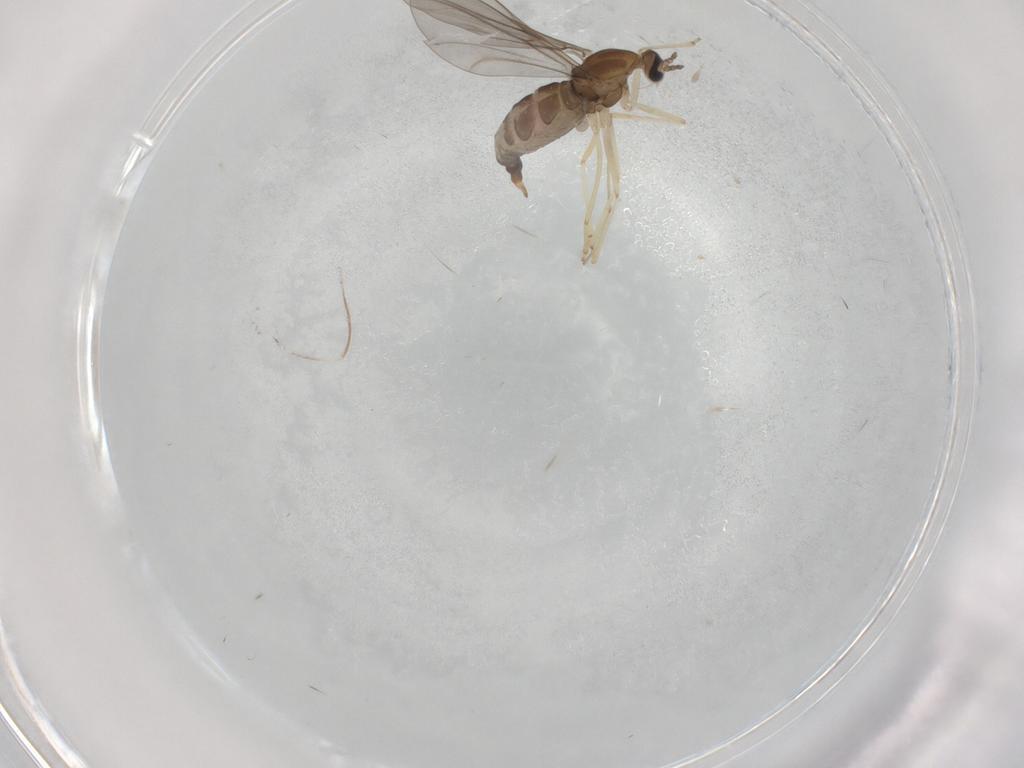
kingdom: Animalia
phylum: Arthropoda
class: Insecta
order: Diptera
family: Cecidomyiidae
